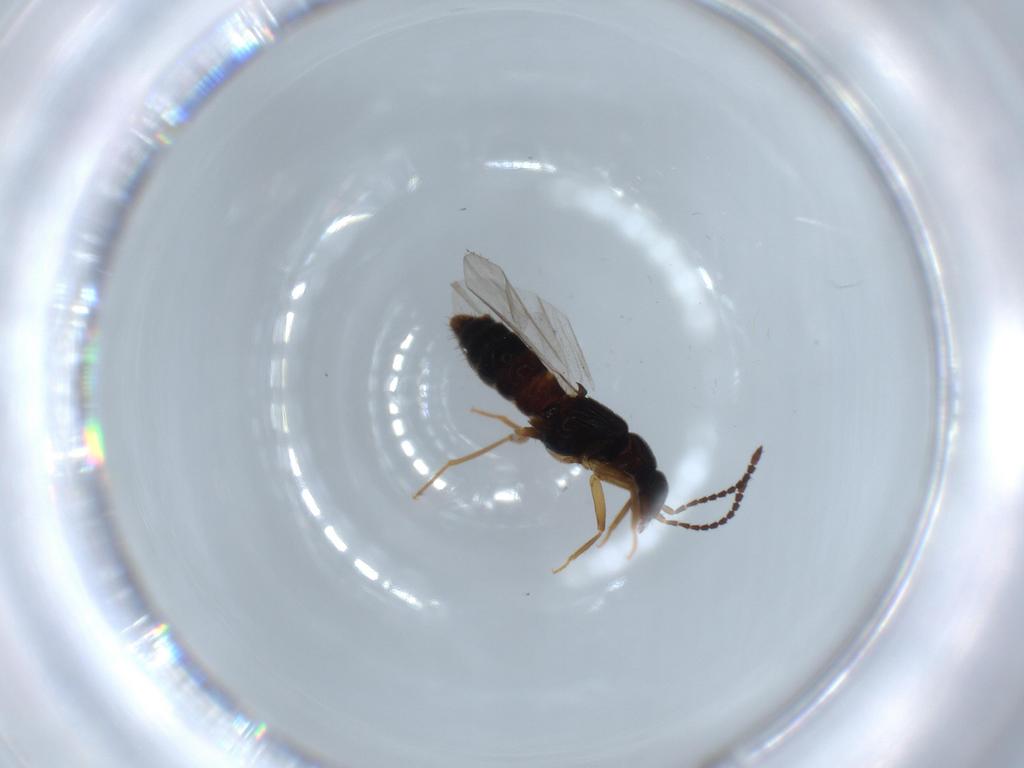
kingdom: Animalia
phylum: Arthropoda
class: Insecta
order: Coleoptera
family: Staphylinidae
